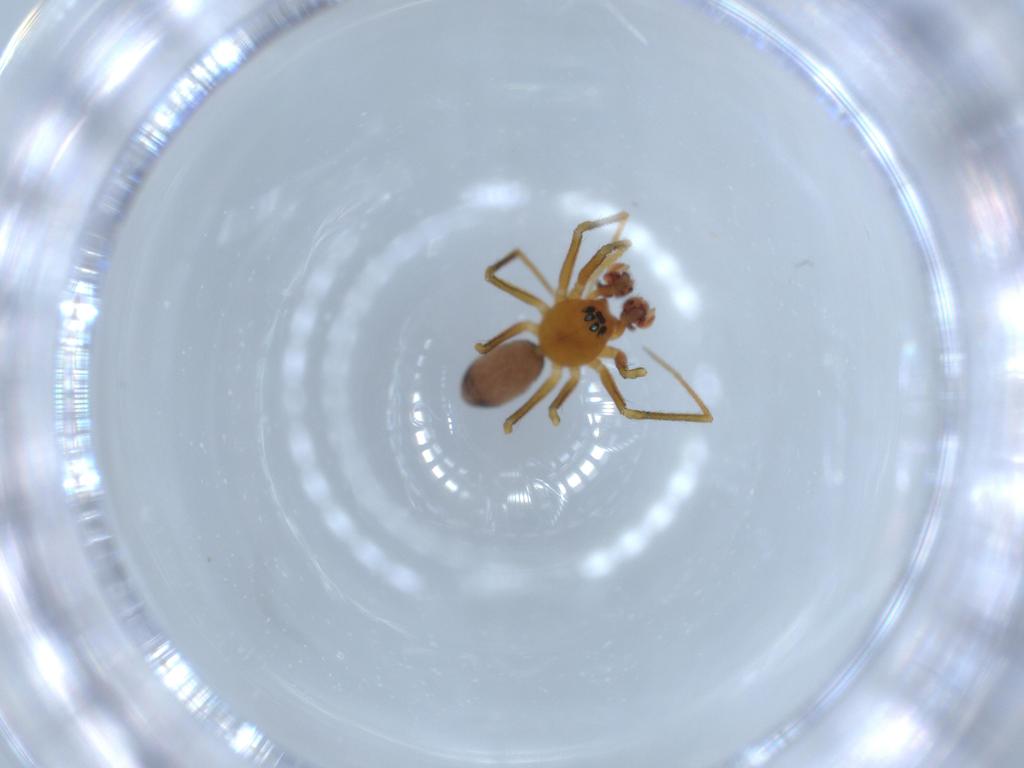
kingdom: Animalia
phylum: Arthropoda
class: Arachnida
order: Araneae
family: Linyphiidae
